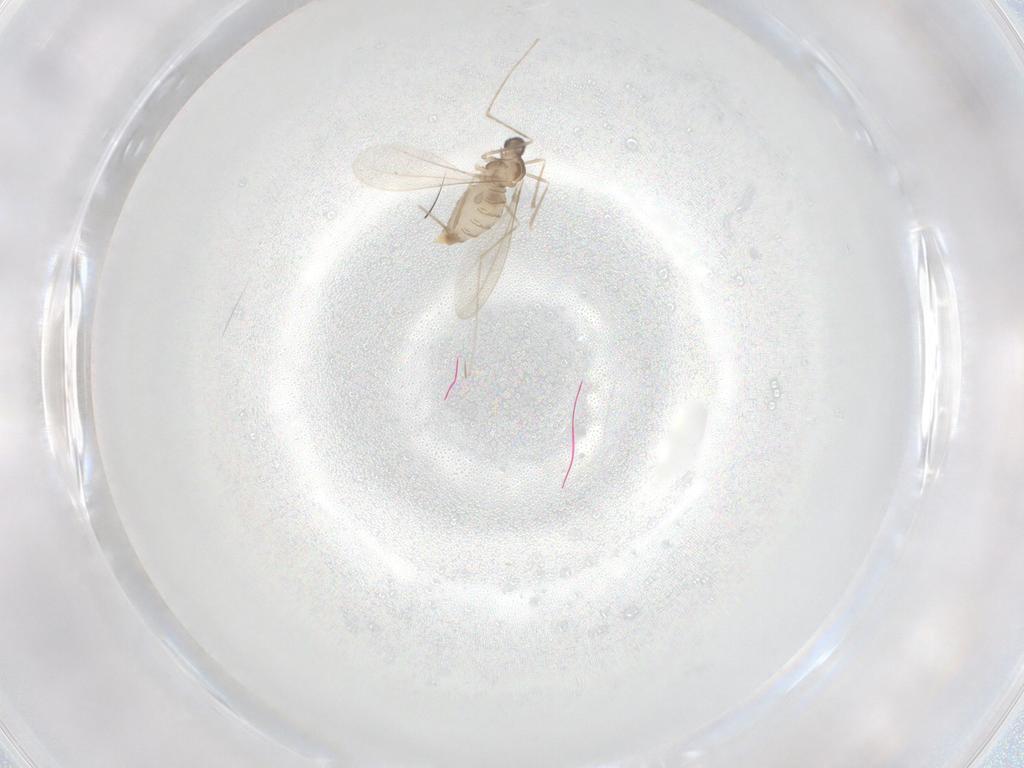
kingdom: Animalia
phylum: Arthropoda
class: Insecta
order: Diptera
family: Cecidomyiidae
